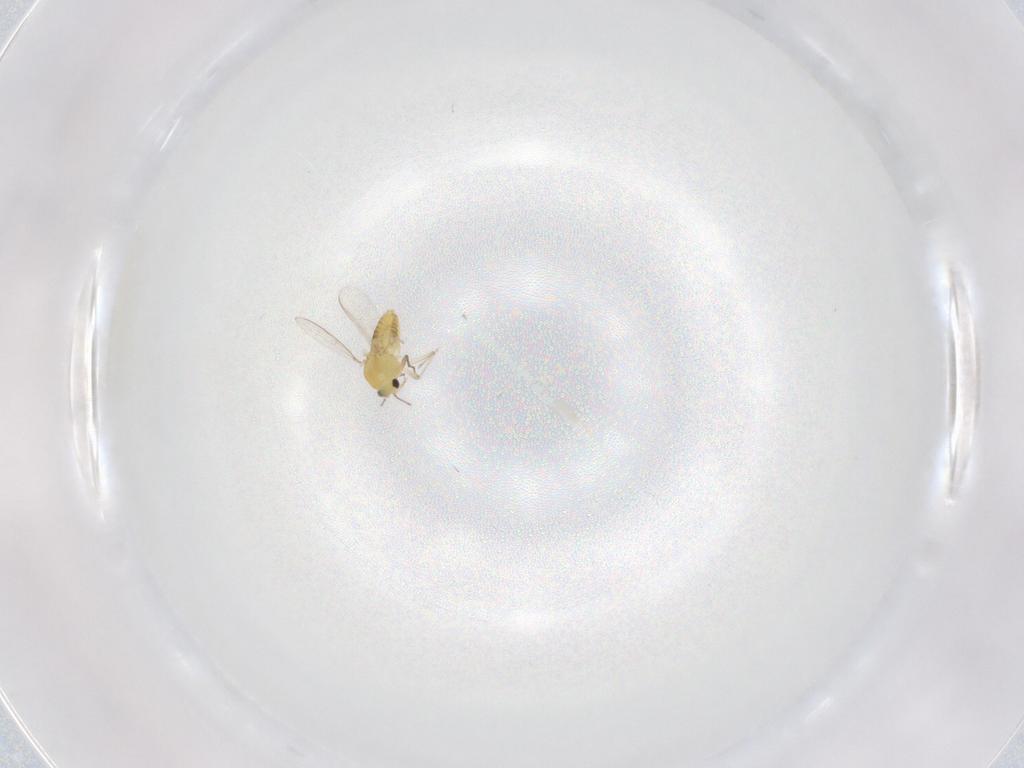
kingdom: Animalia
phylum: Arthropoda
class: Insecta
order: Diptera
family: Chironomidae
